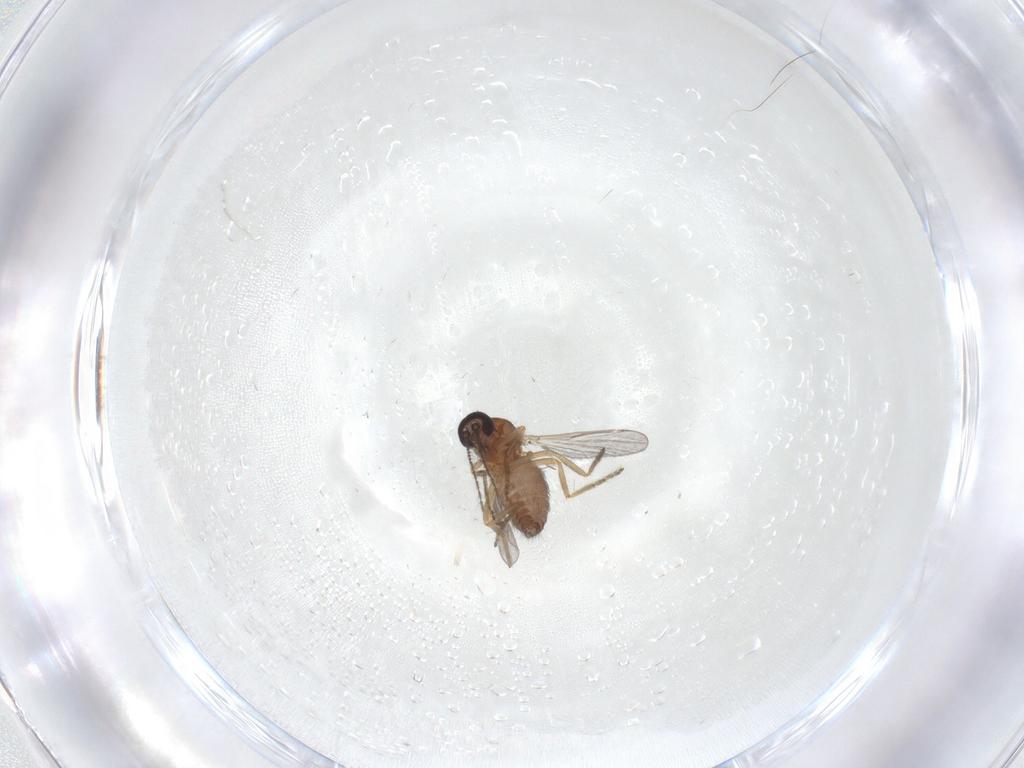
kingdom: Animalia
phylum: Arthropoda
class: Insecta
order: Diptera
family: Ceratopogonidae
